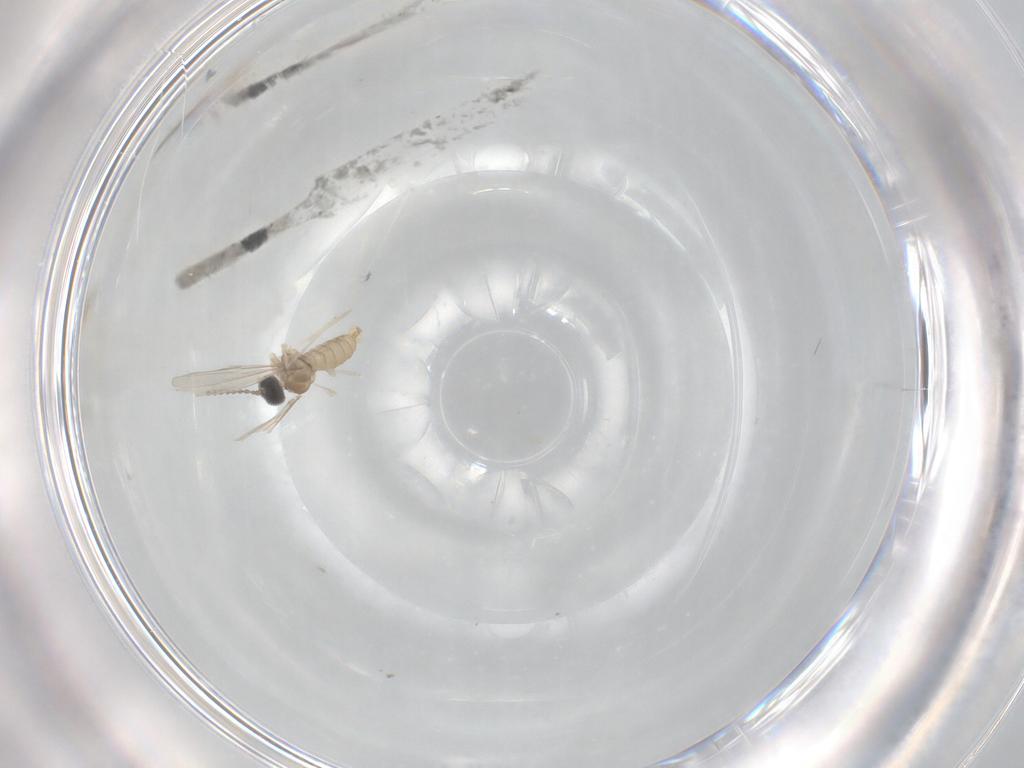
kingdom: Animalia
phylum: Arthropoda
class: Insecta
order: Diptera
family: Cecidomyiidae
